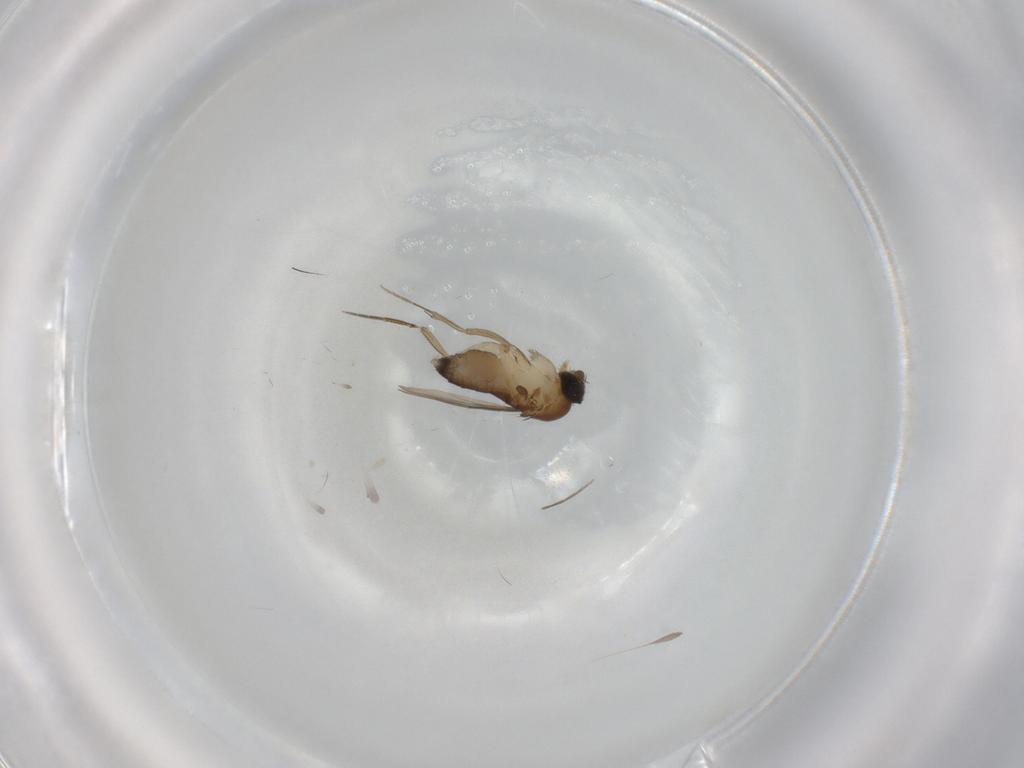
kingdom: Animalia
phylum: Arthropoda
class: Insecta
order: Diptera
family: Phoridae
